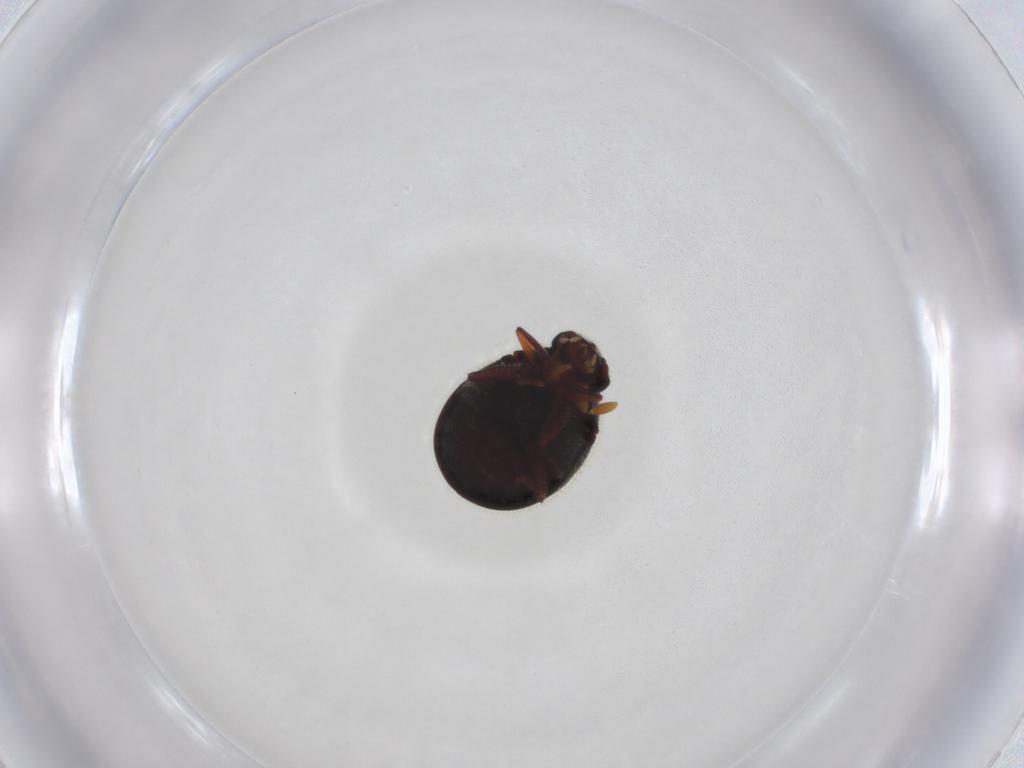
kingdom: Animalia
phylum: Arthropoda
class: Insecta
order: Coleoptera
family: Ptinidae
